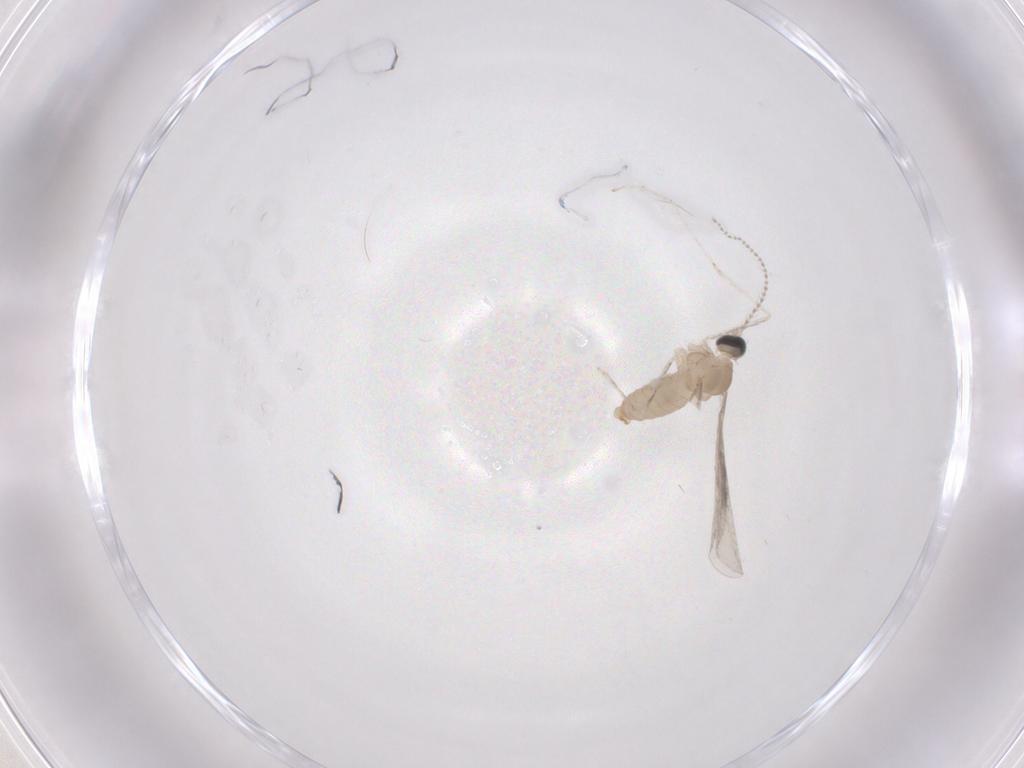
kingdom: Animalia
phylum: Arthropoda
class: Insecta
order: Diptera
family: Cecidomyiidae
